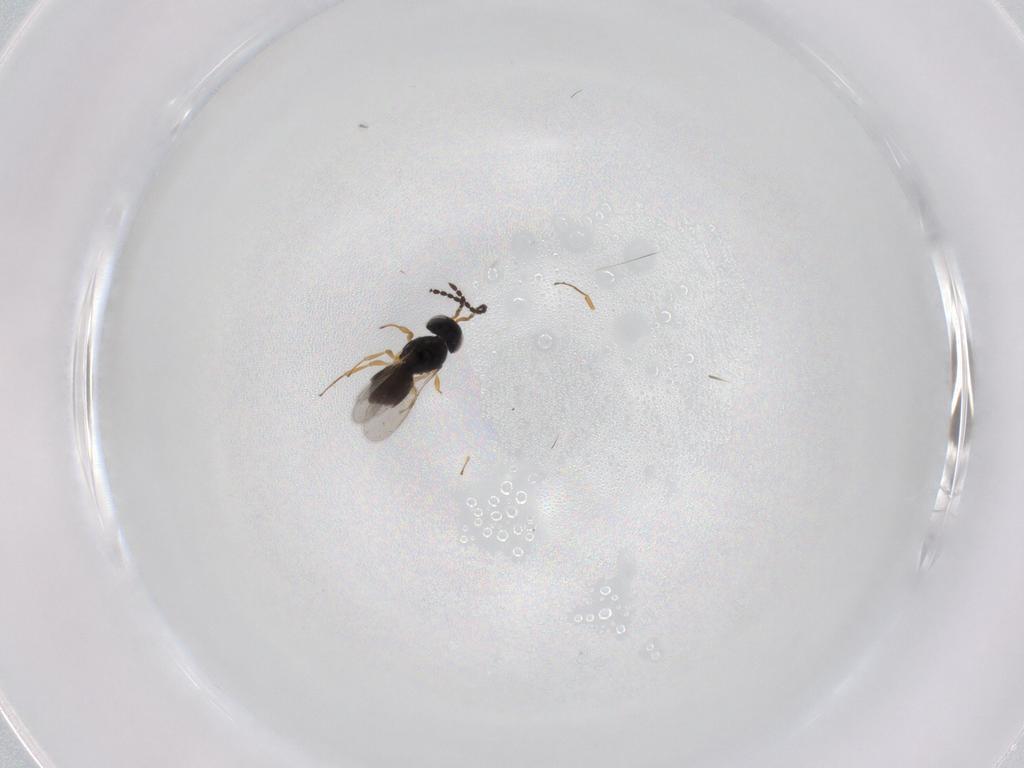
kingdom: Animalia
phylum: Arthropoda
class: Insecta
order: Hymenoptera
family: Scelionidae
